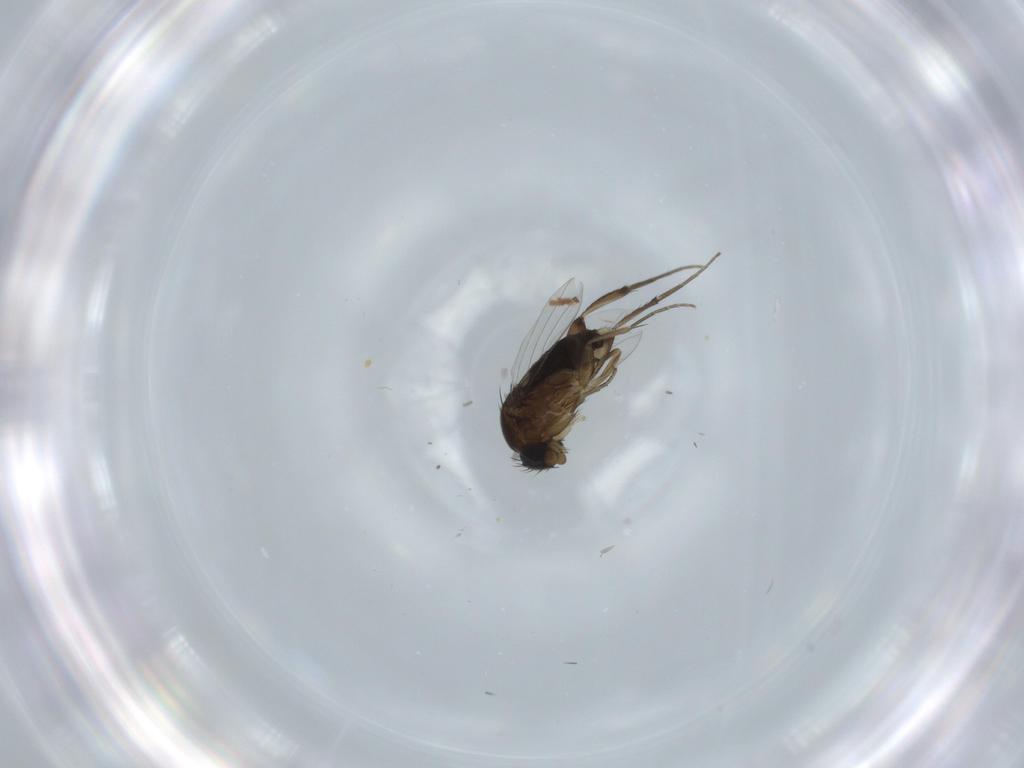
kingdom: Animalia
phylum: Arthropoda
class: Insecta
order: Diptera
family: Phoridae
